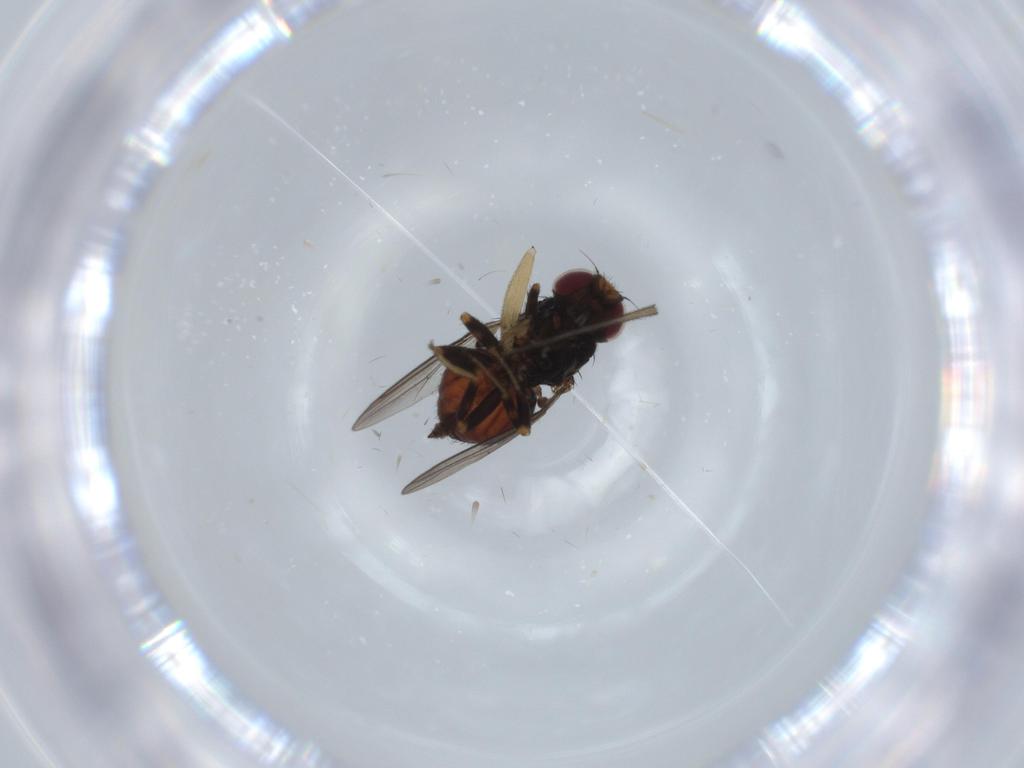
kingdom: Animalia
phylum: Arthropoda
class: Insecta
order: Diptera
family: Chloropidae
